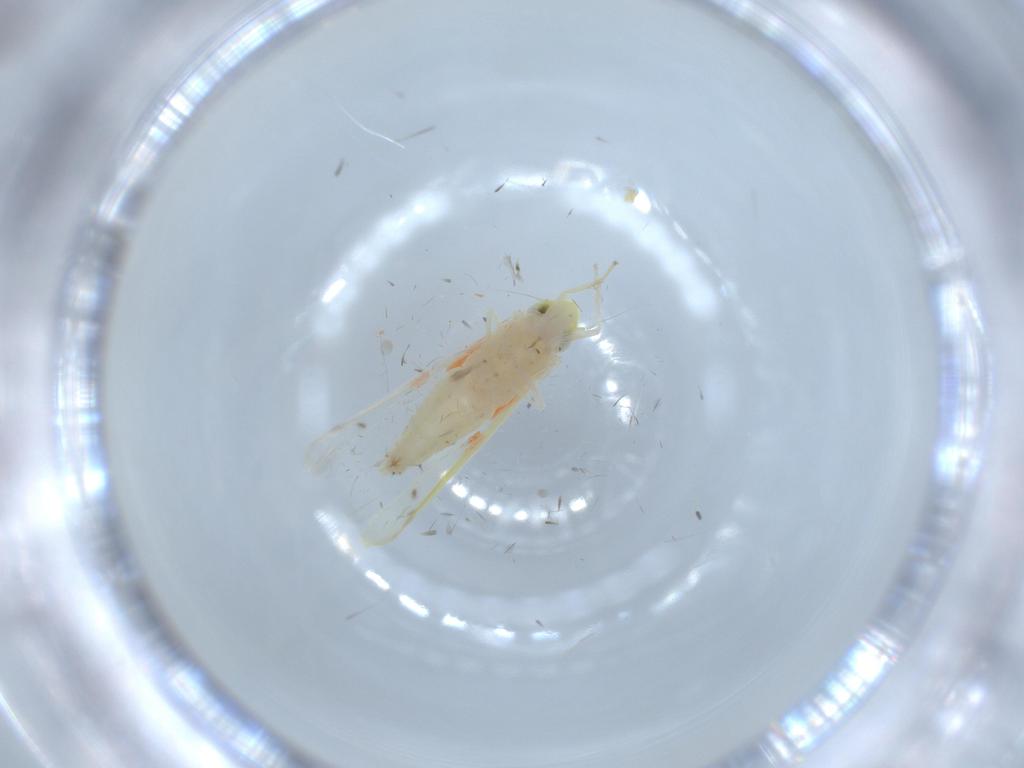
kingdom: Animalia
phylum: Arthropoda
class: Insecta
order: Hemiptera
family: Cicadellidae
